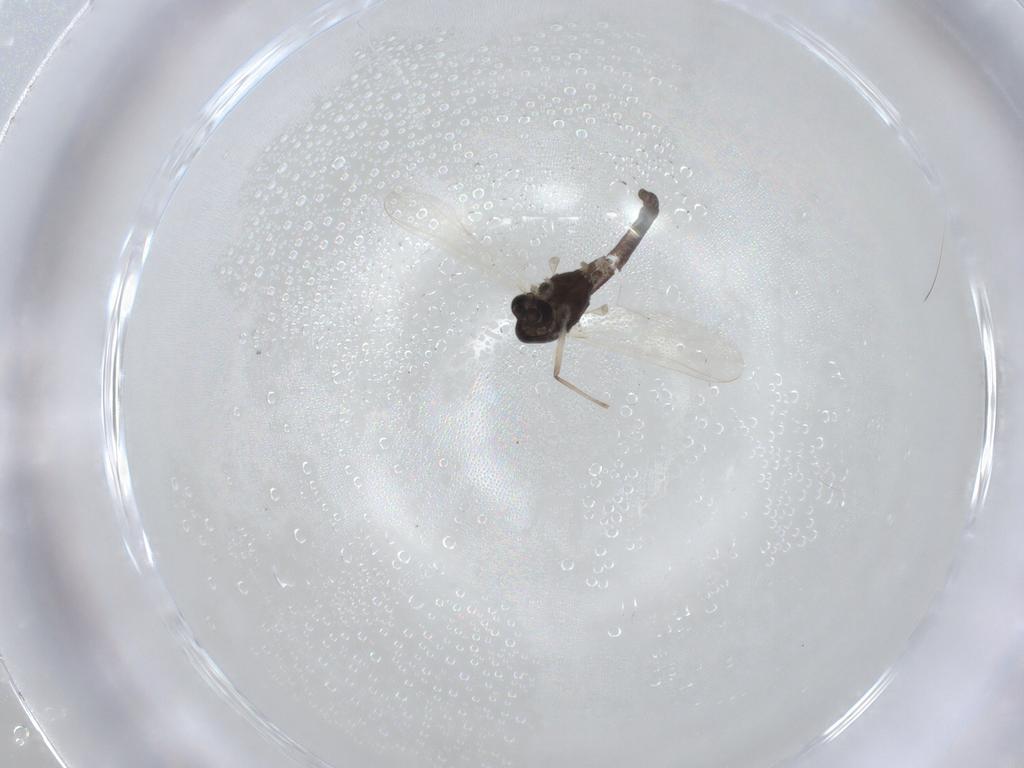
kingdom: Animalia
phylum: Arthropoda
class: Insecta
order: Diptera
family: Chironomidae
